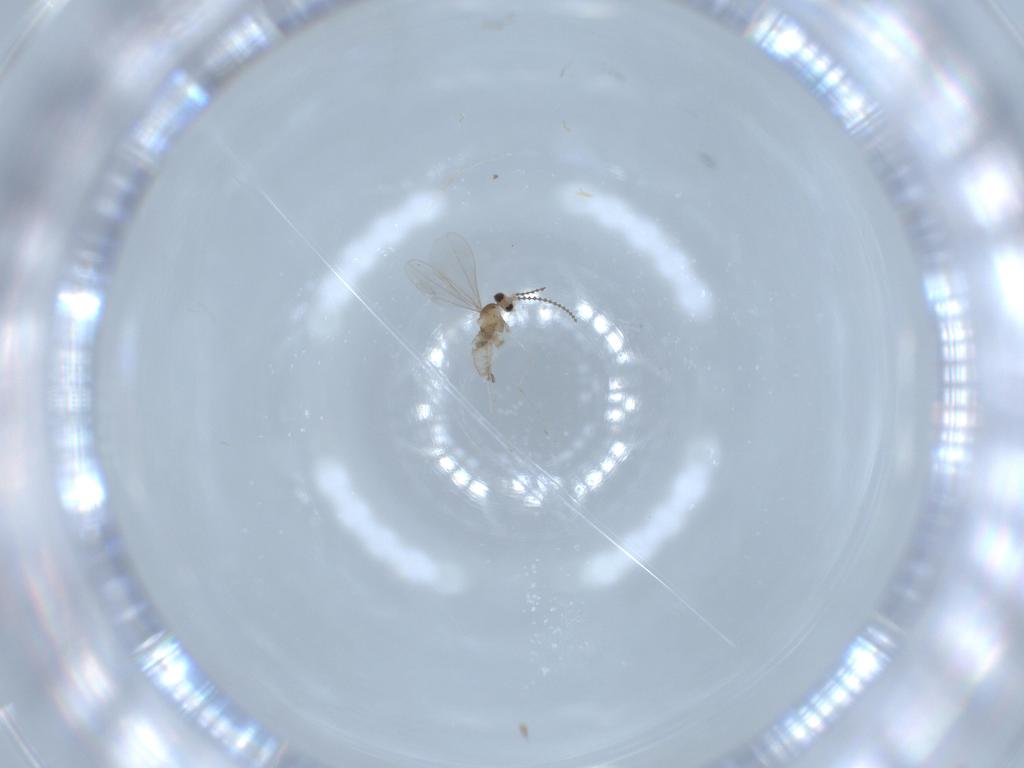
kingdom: Animalia
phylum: Arthropoda
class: Insecta
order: Diptera
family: Cecidomyiidae
